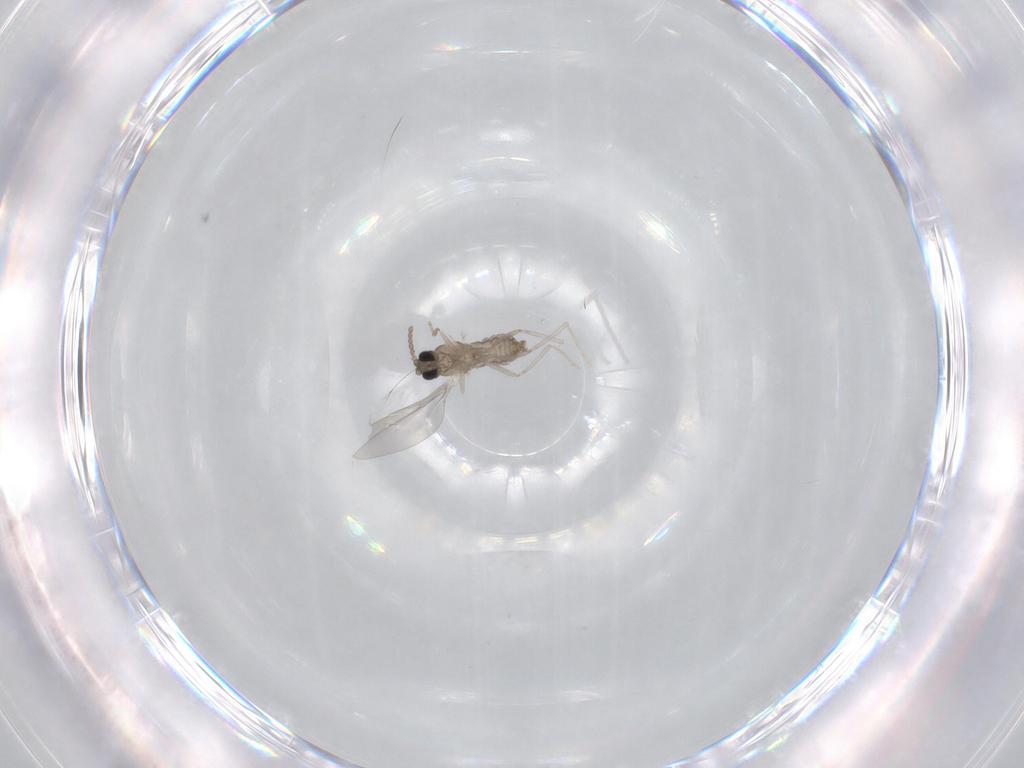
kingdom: Animalia
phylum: Arthropoda
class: Insecta
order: Diptera
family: Cecidomyiidae
